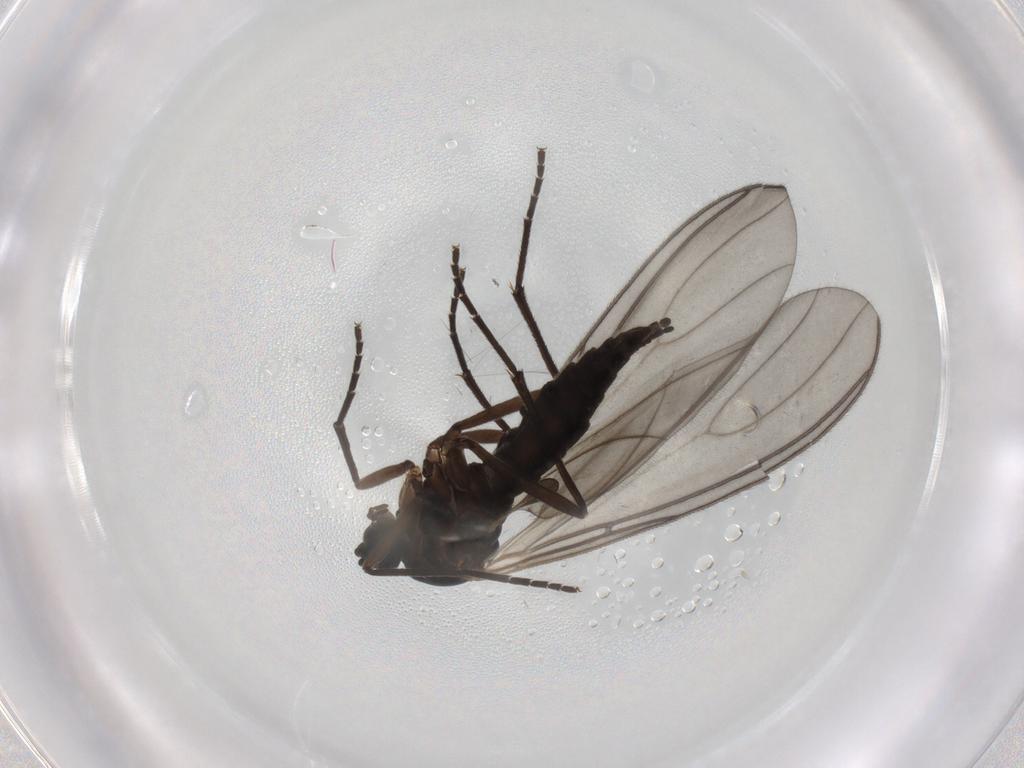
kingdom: Animalia
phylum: Arthropoda
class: Insecta
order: Diptera
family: Sciaridae
